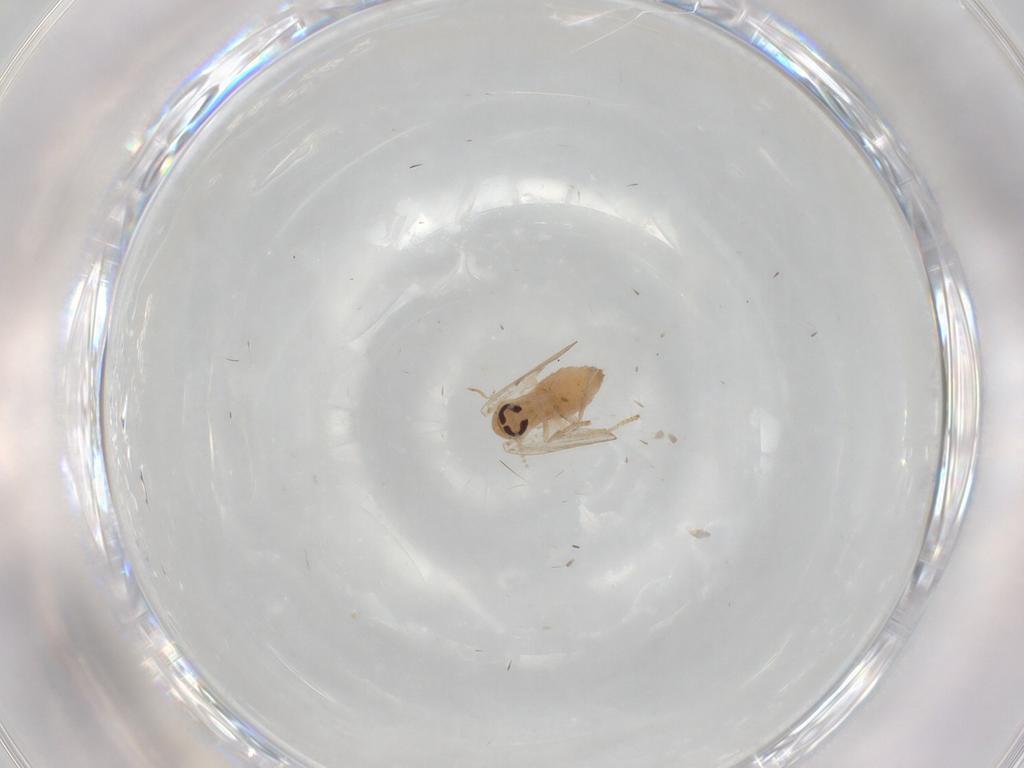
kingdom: Animalia
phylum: Arthropoda
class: Insecta
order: Diptera
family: Psychodidae
